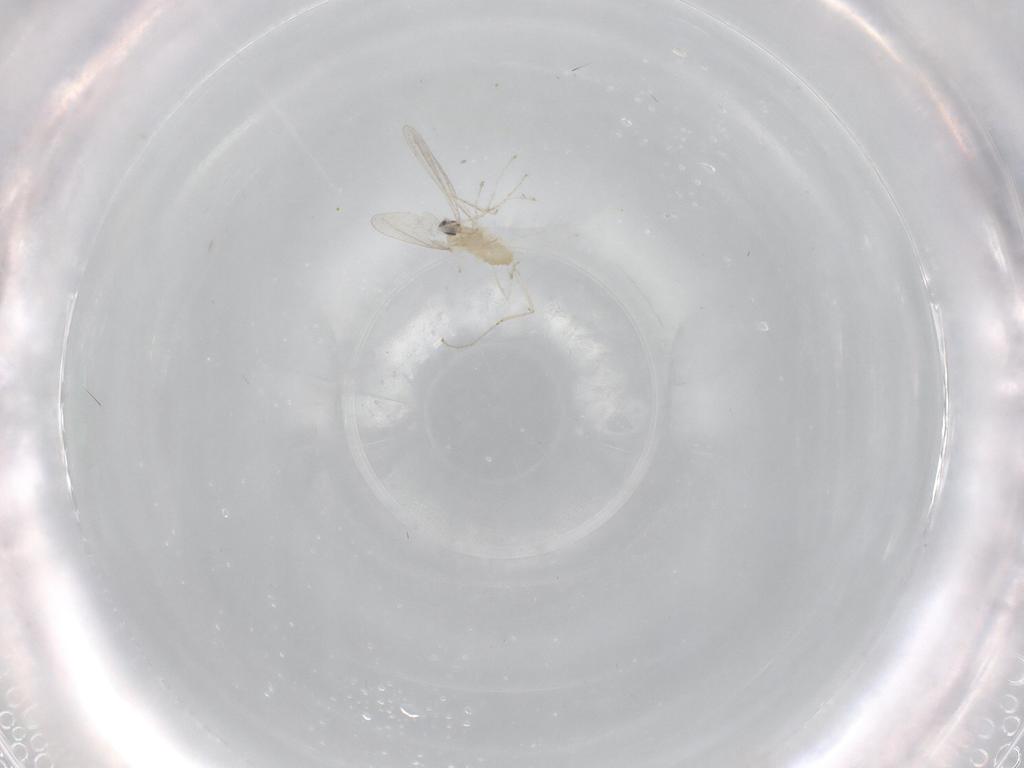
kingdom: Animalia
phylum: Arthropoda
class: Insecta
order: Diptera
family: Cecidomyiidae
